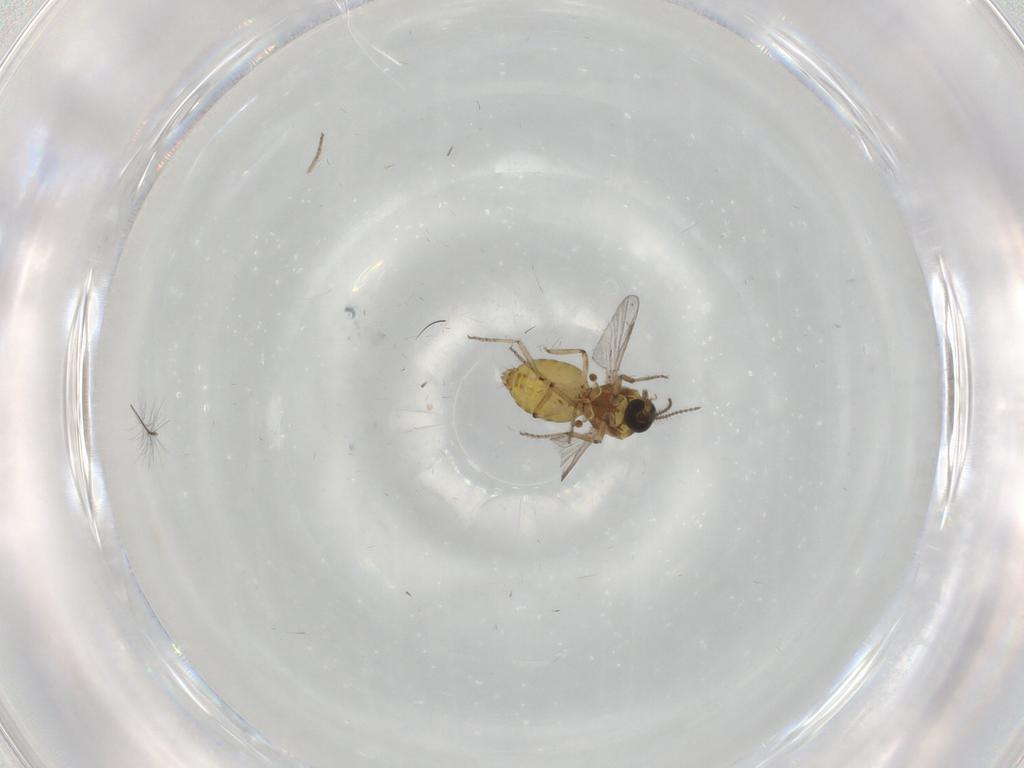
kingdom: Animalia
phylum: Arthropoda
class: Insecta
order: Diptera
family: Ceratopogonidae
